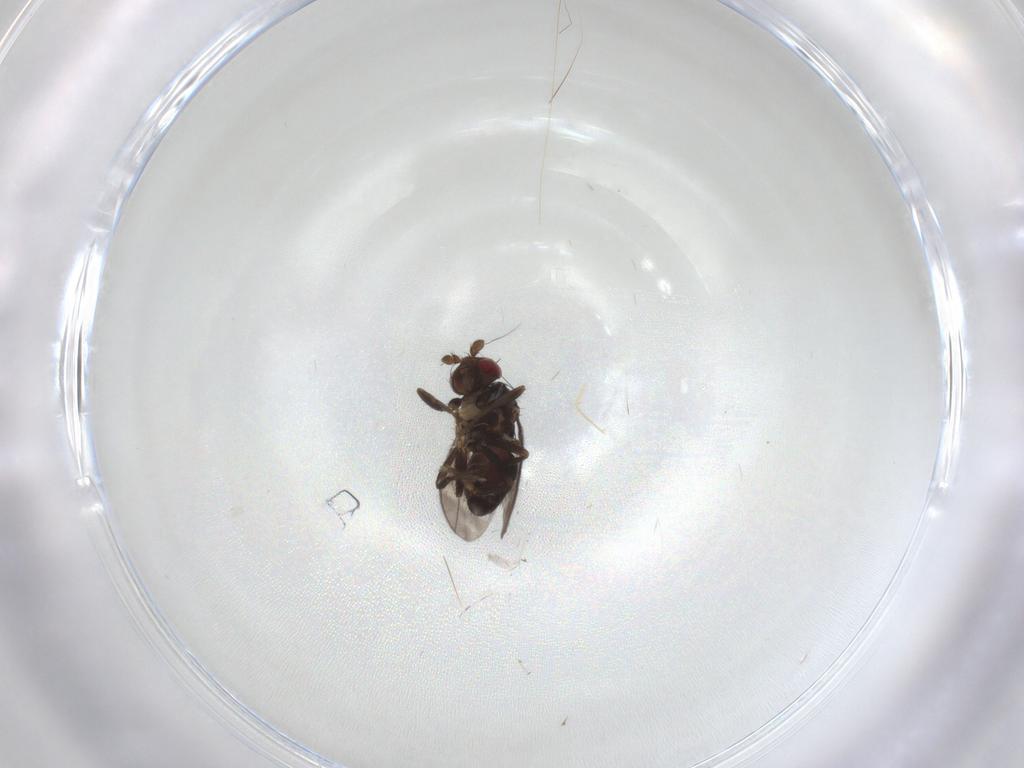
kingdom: Animalia
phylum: Arthropoda
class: Insecta
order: Diptera
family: Sphaeroceridae
